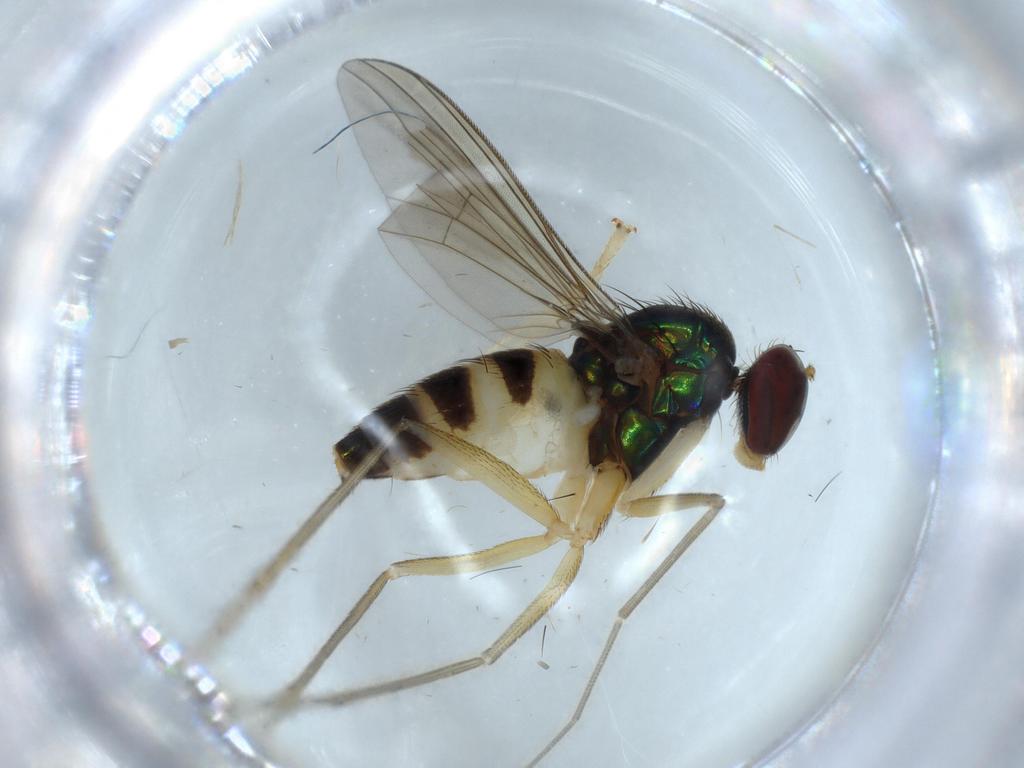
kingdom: Animalia
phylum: Arthropoda
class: Insecta
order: Diptera
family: Dolichopodidae
